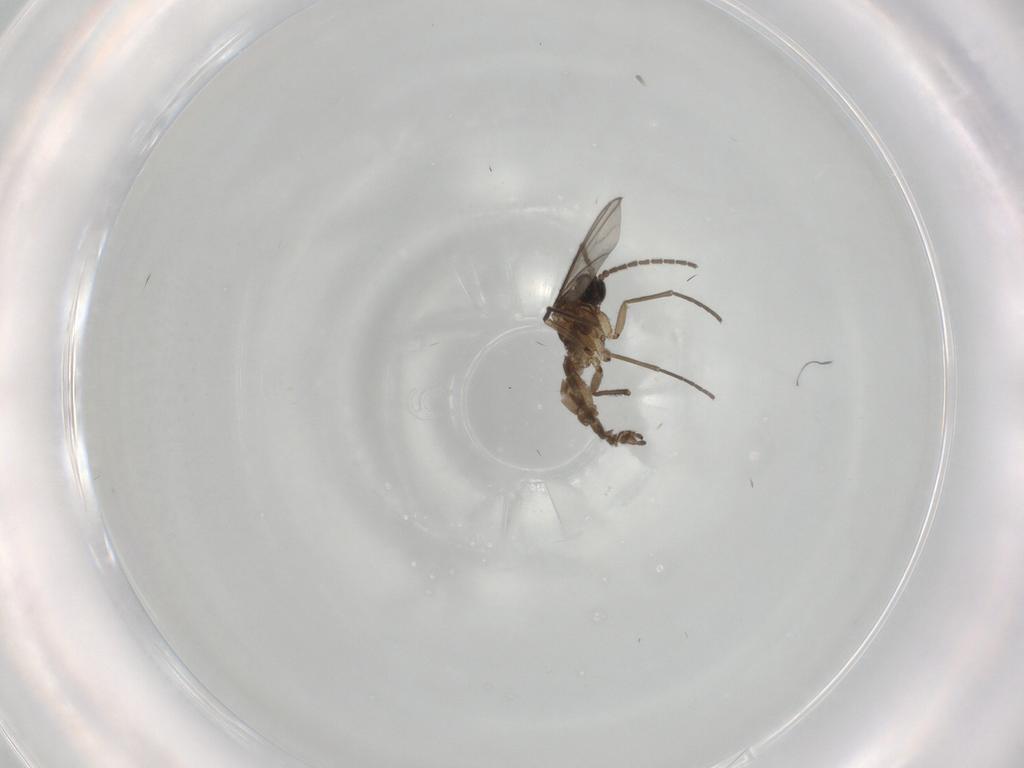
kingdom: Animalia
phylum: Arthropoda
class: Insecta
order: Diptera
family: Sciaridae
